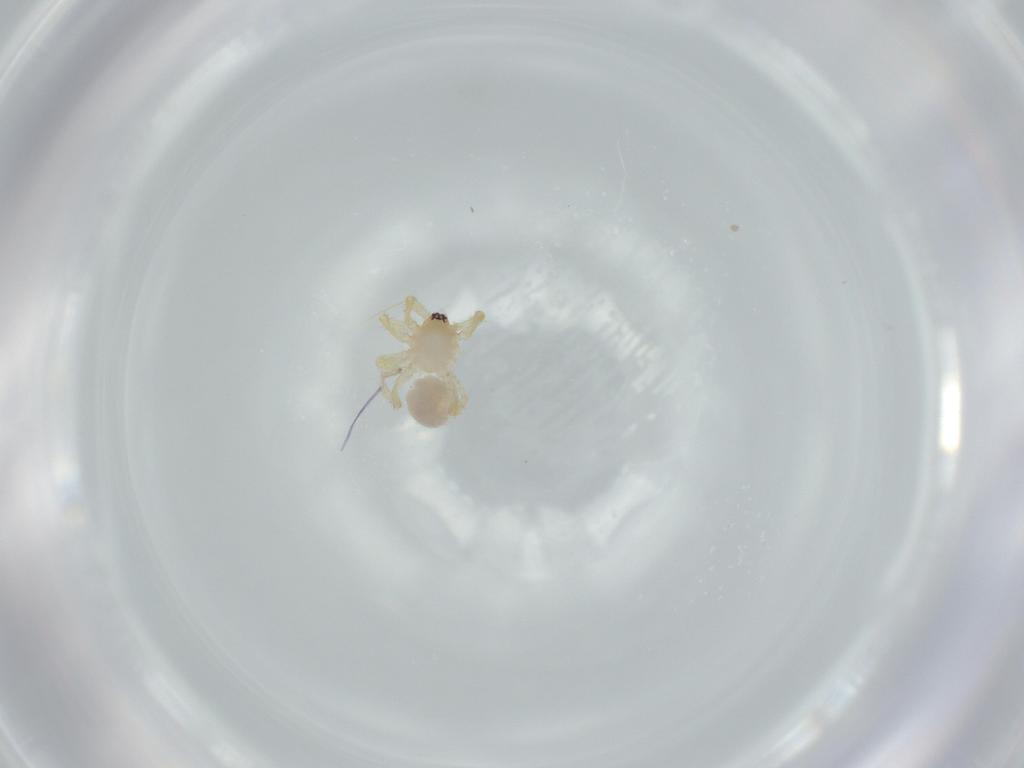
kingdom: Animalia
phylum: Arthropoda
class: Arachnida
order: Araneae
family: Oonopidae
